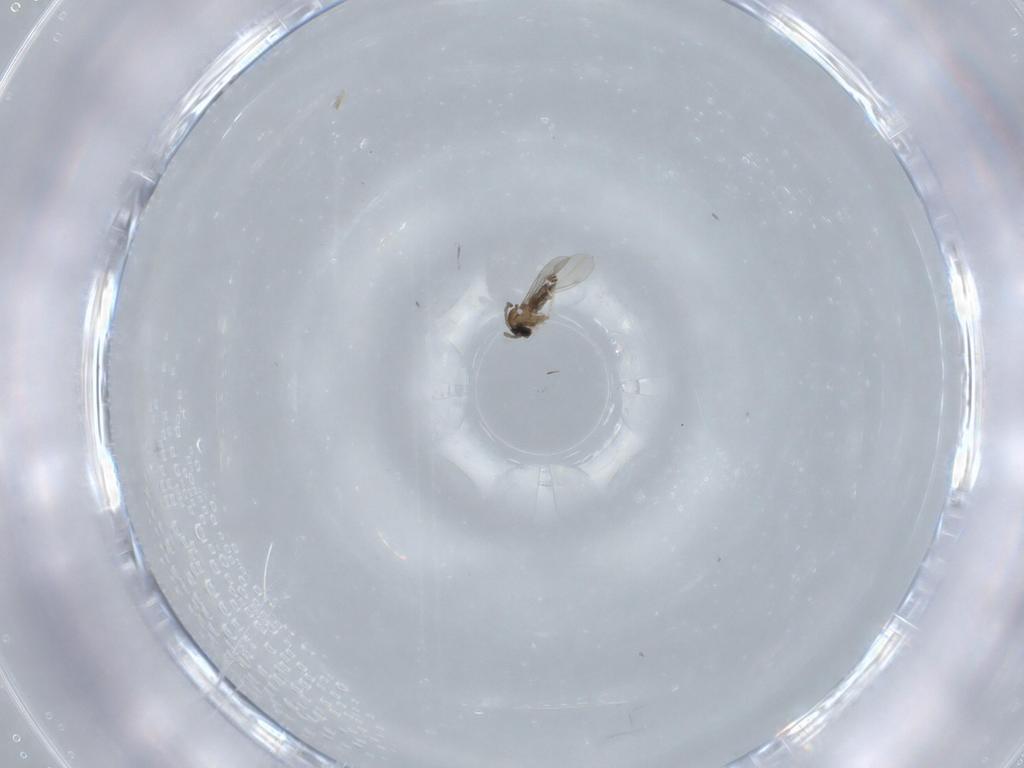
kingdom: Animalia
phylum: Arthropoda
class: Insecta
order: Diptera
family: Cecidomyiidae
